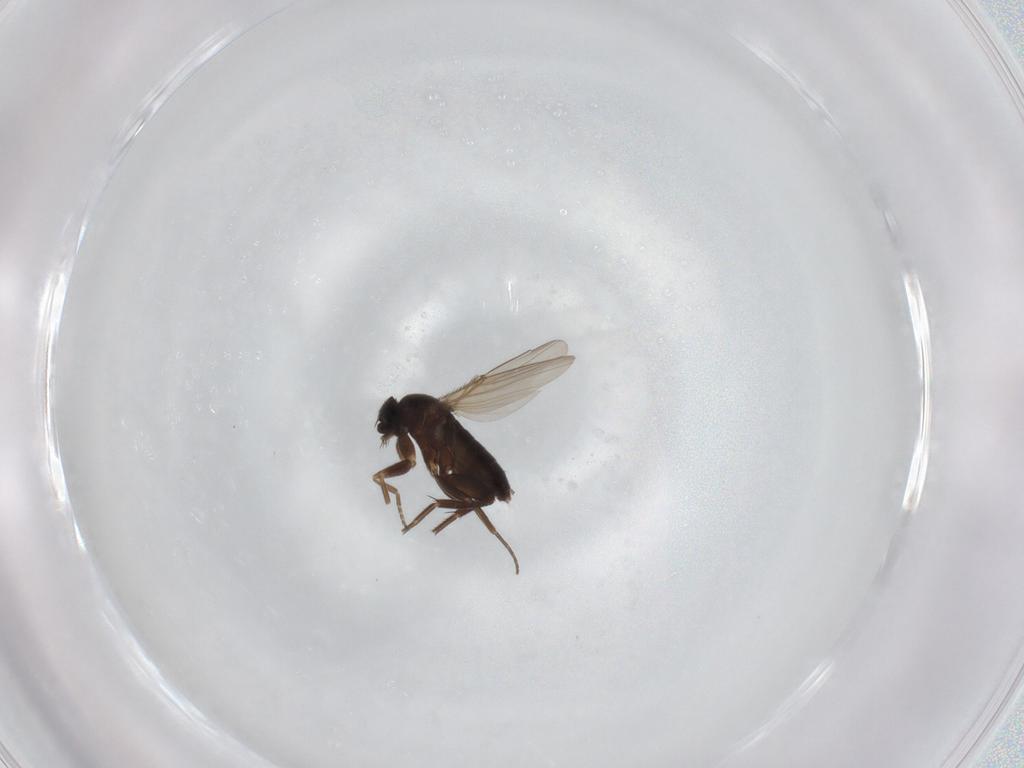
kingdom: Animalia
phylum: Arthropoda
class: Insecta
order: Diptera
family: Chironomidae
